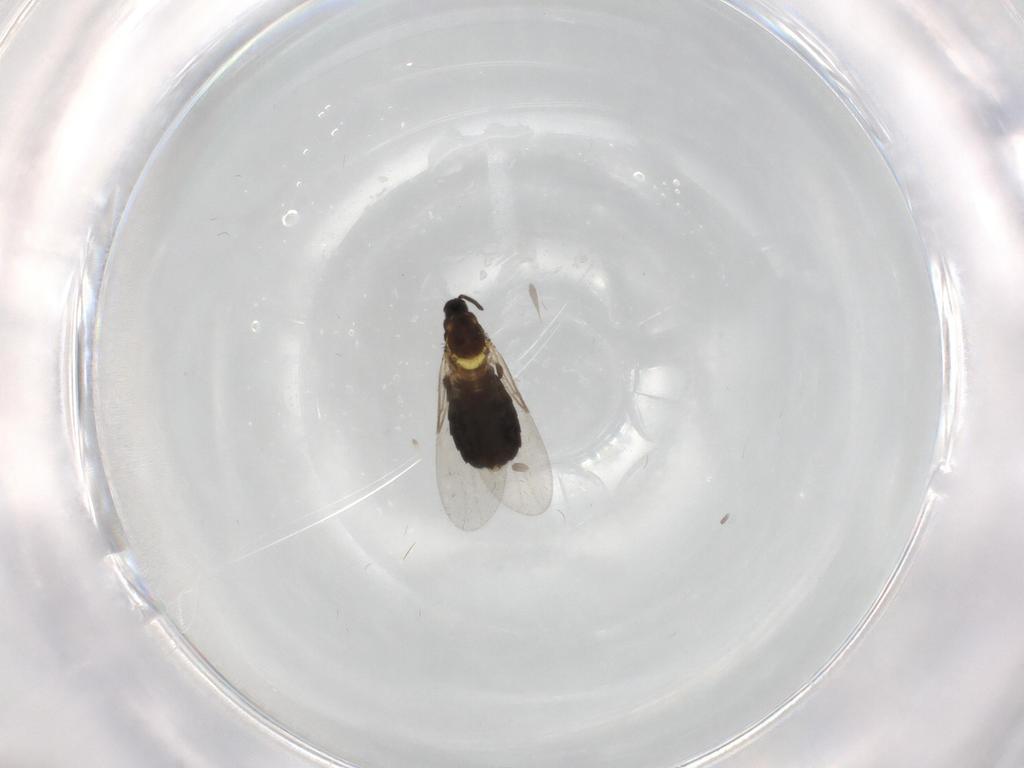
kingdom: Animalia
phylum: Arthropoda
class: Insecta
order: Diptera
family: Scatopsidae
